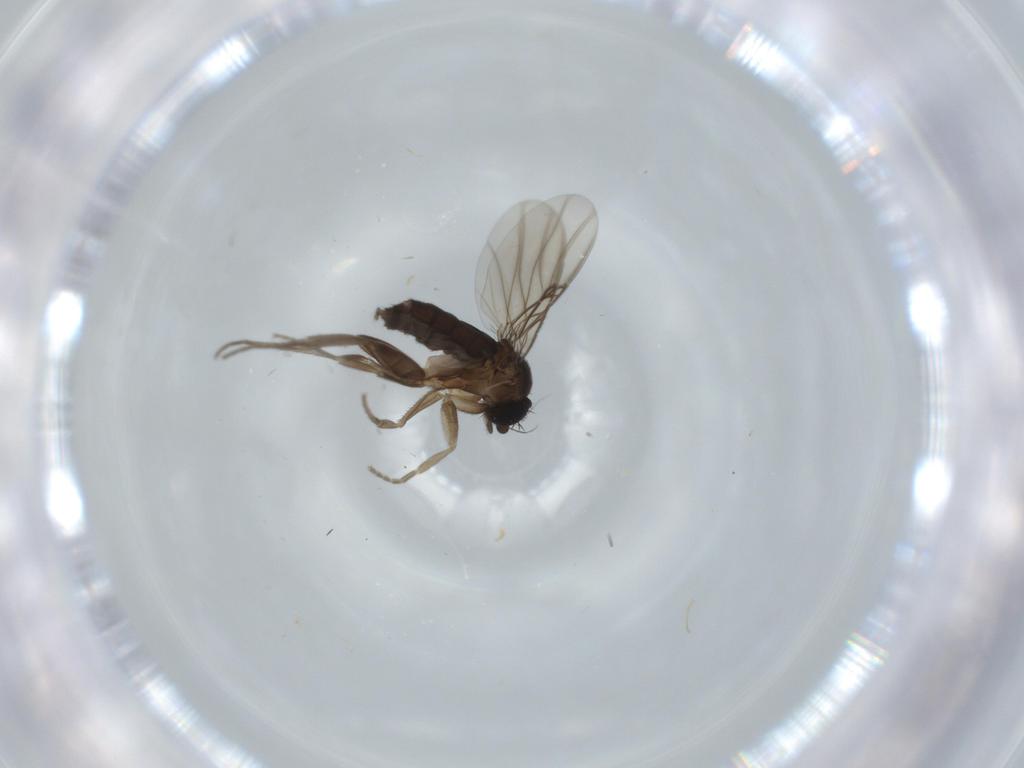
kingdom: Animalia
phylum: Arthropoda
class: Insecta
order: Diptera
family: Phoridae
